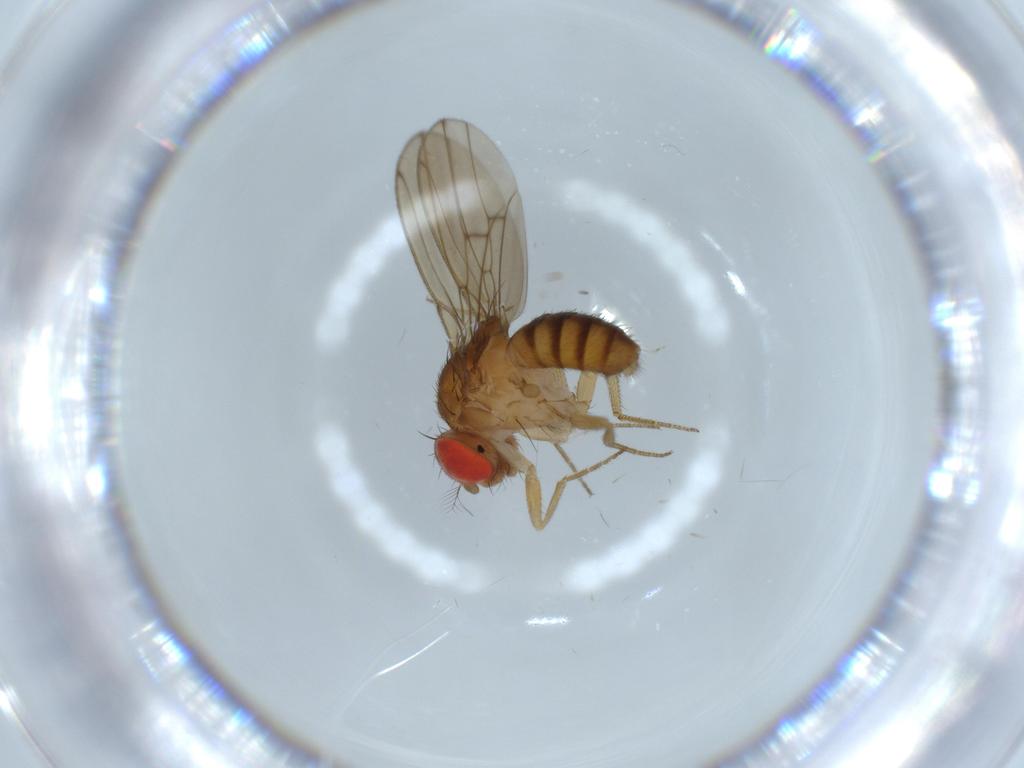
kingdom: Animalia
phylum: Arthropoda
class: Insecta
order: Diptera
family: Drosophilidae
